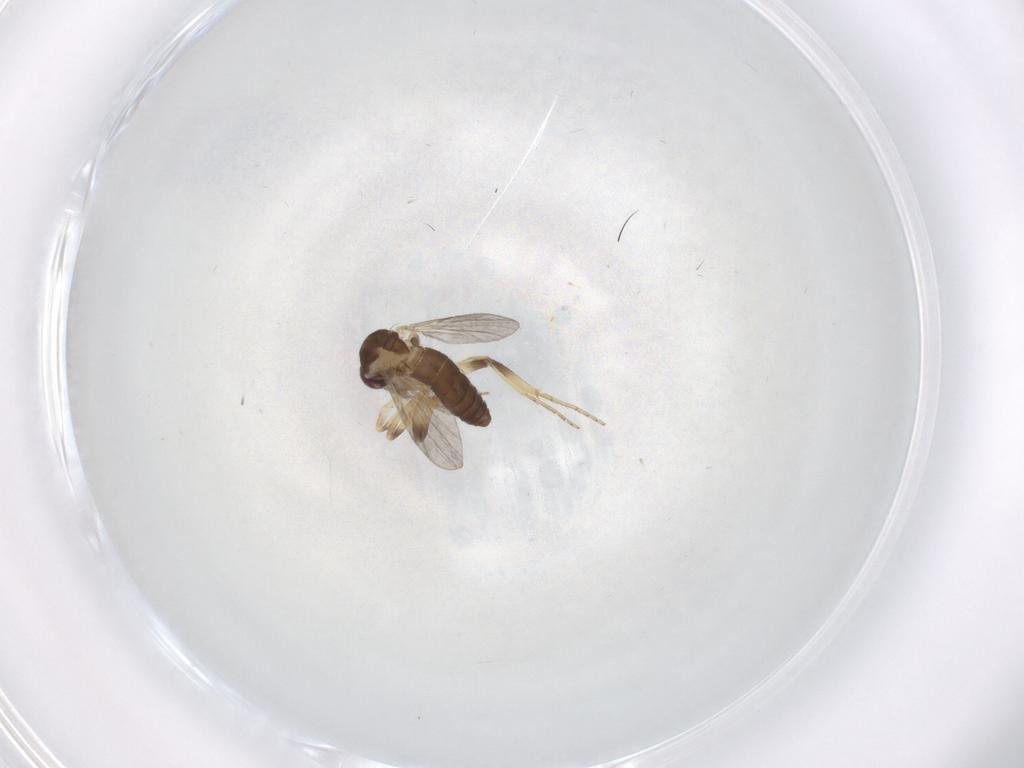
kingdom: Animalia
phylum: Arthropoda
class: Insecta
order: Diptera
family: Ceratopogonidae
